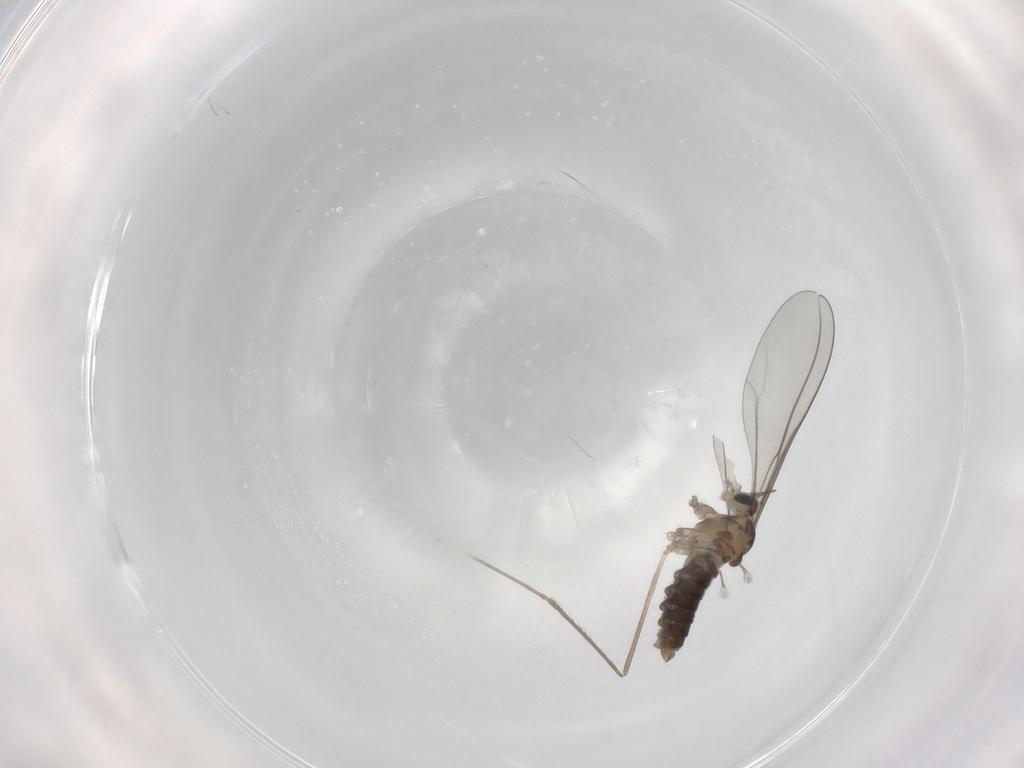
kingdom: Animalia
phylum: Arthropoda
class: Insecta
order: Diptera
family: Cecidomyiidae
